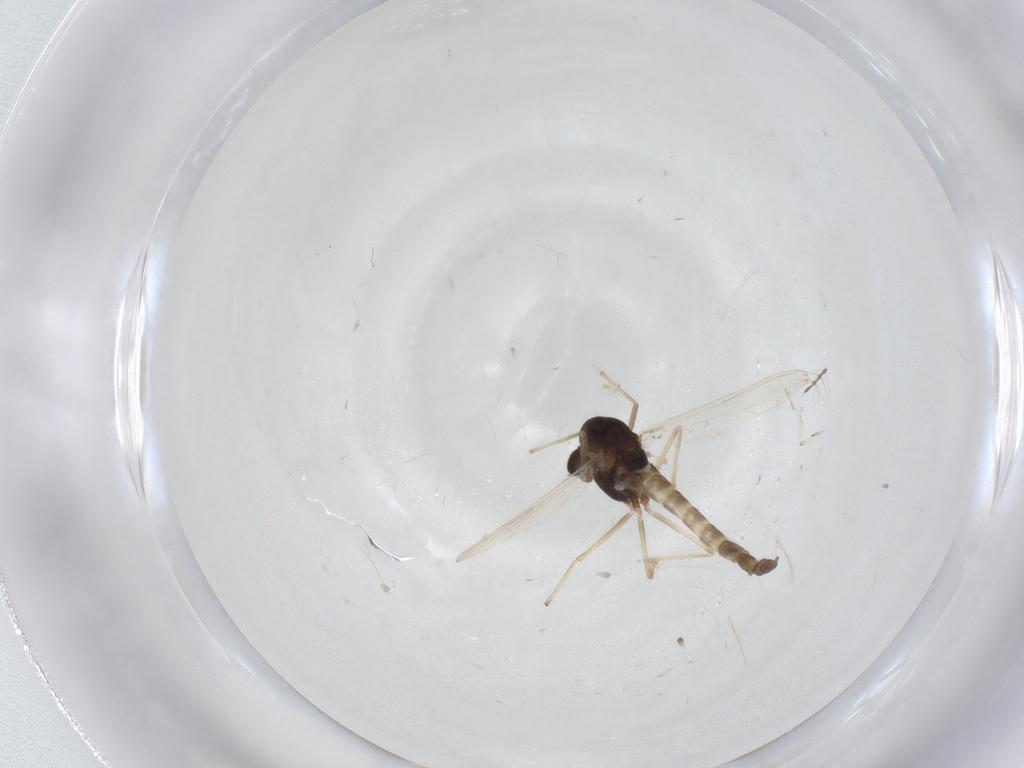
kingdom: Animalia
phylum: Arthropoda
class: Insecta
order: Diptera
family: Chironomidae
